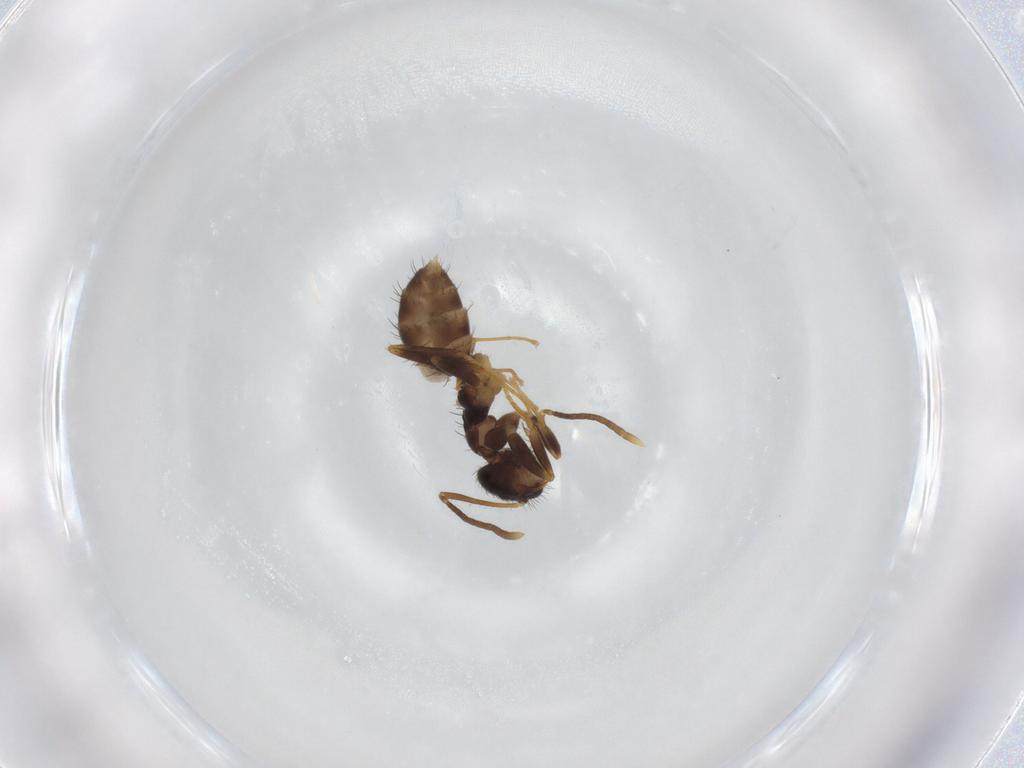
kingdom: Animalia
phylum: Arthropoda
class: Insecta
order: Hymenoptera
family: Formicidae
